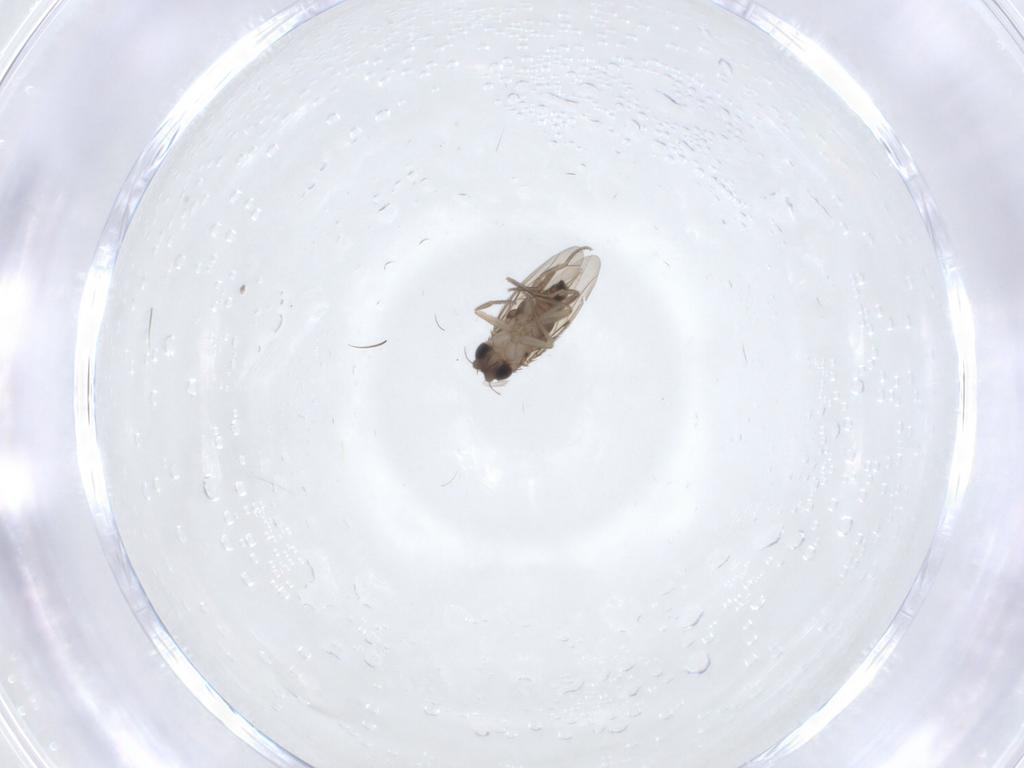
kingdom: Animalia
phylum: Arthropoda
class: Insecta
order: Diptera
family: Phoridae
